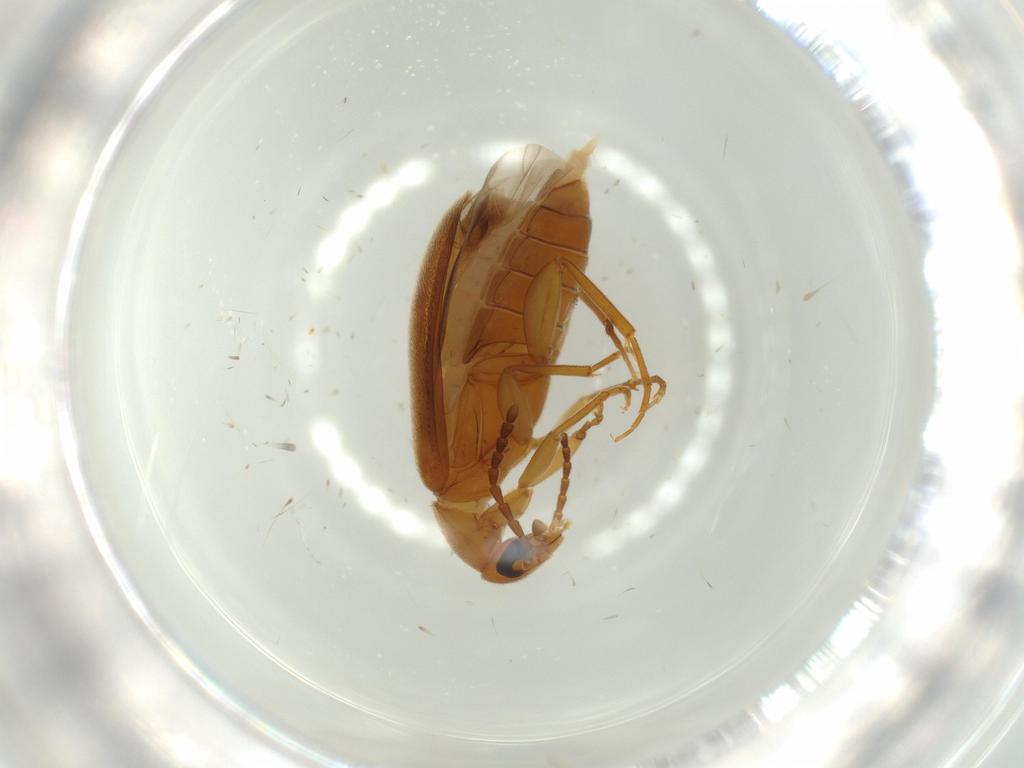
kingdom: Animalia
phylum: Arthropoda
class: Insecta
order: Coleoptera
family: Scraptiidae
